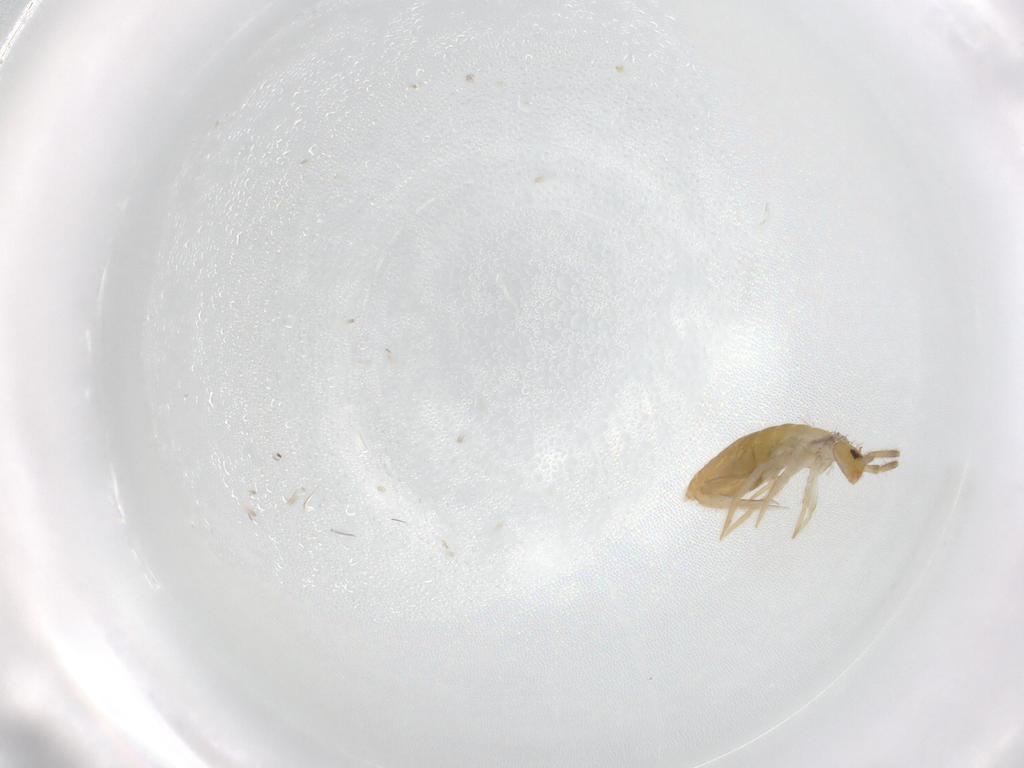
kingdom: Animalia
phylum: Arthropoda
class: Collembola
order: Entomobryomorpha
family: Entomobryidae
